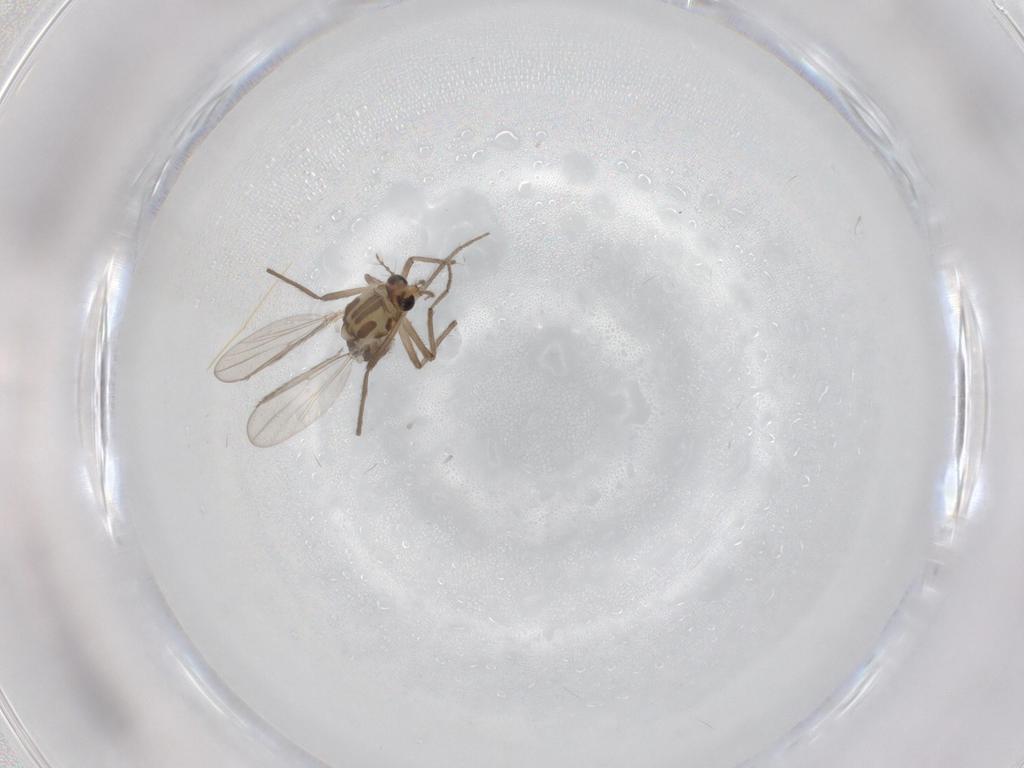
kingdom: Animalia
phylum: Arthropoda
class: Insecta
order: Diptera
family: Chironomidae
